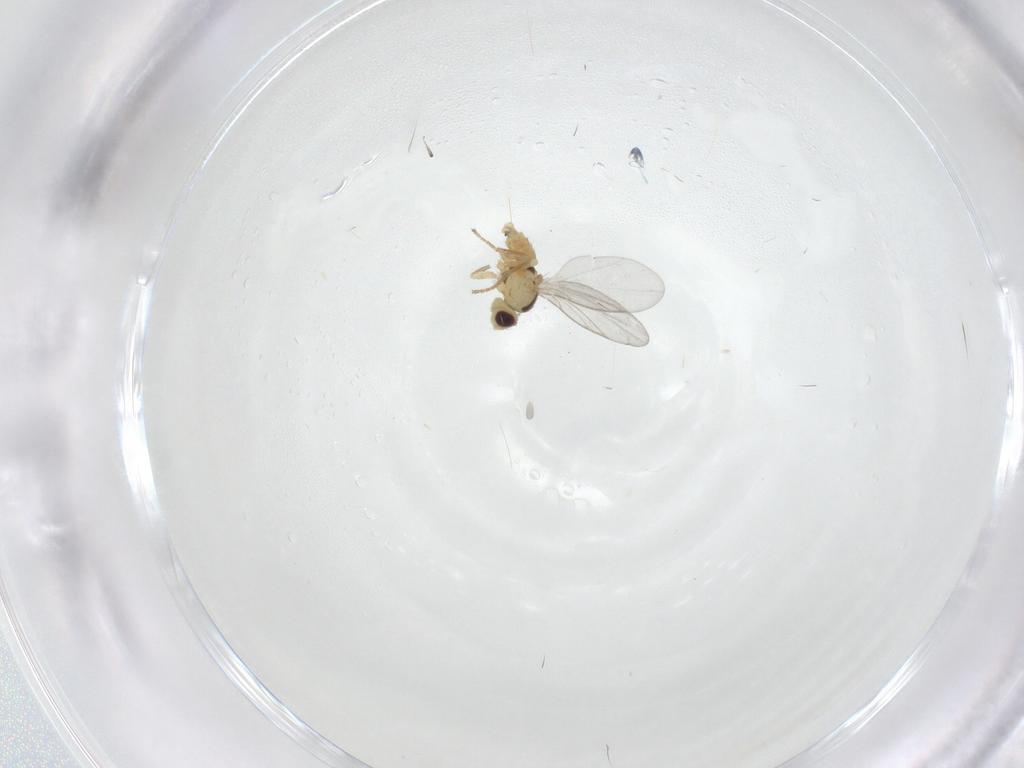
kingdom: Animalia
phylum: Arthropoda
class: Insecta
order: Diptera
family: Agromyzidae
